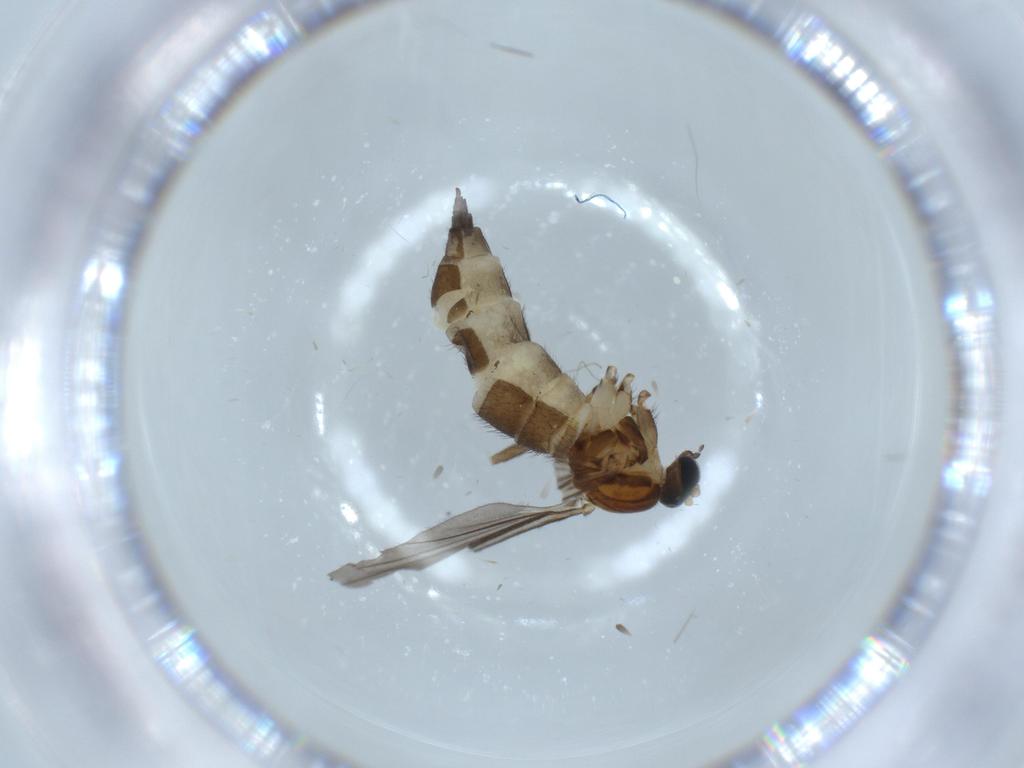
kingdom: Animalia
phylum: Arthropoda
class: Insecta
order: Diptera
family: Sciaridae
